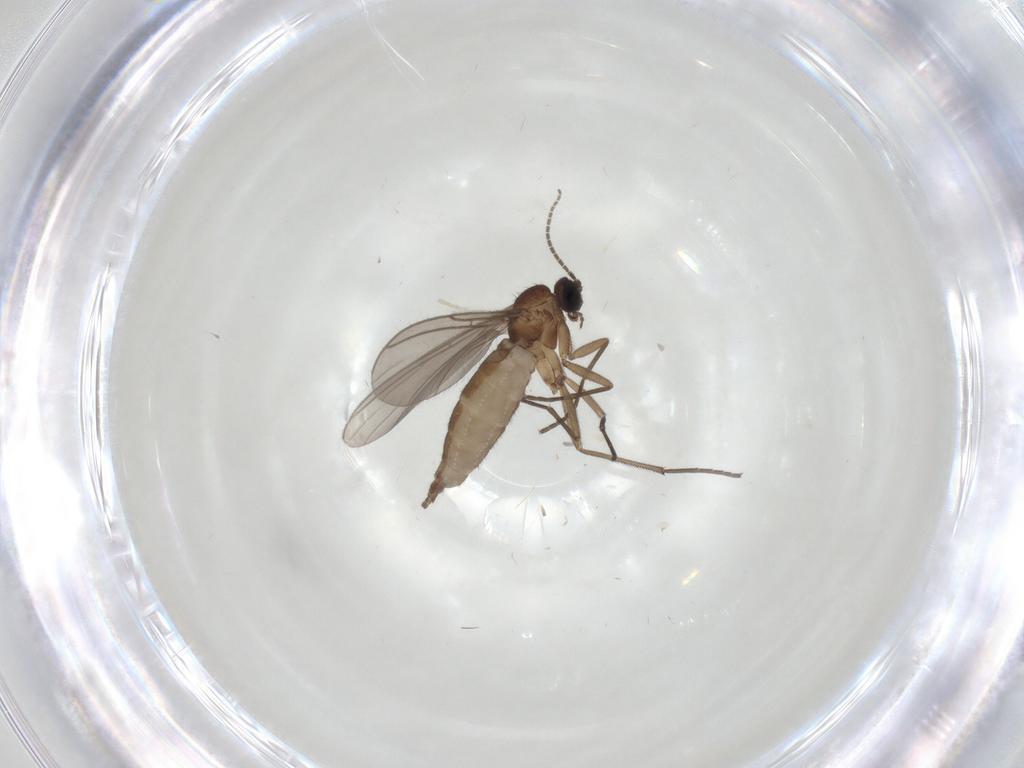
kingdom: Animalia
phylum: Arthropoda
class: Insecta
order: Diptera
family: Sciaridae
